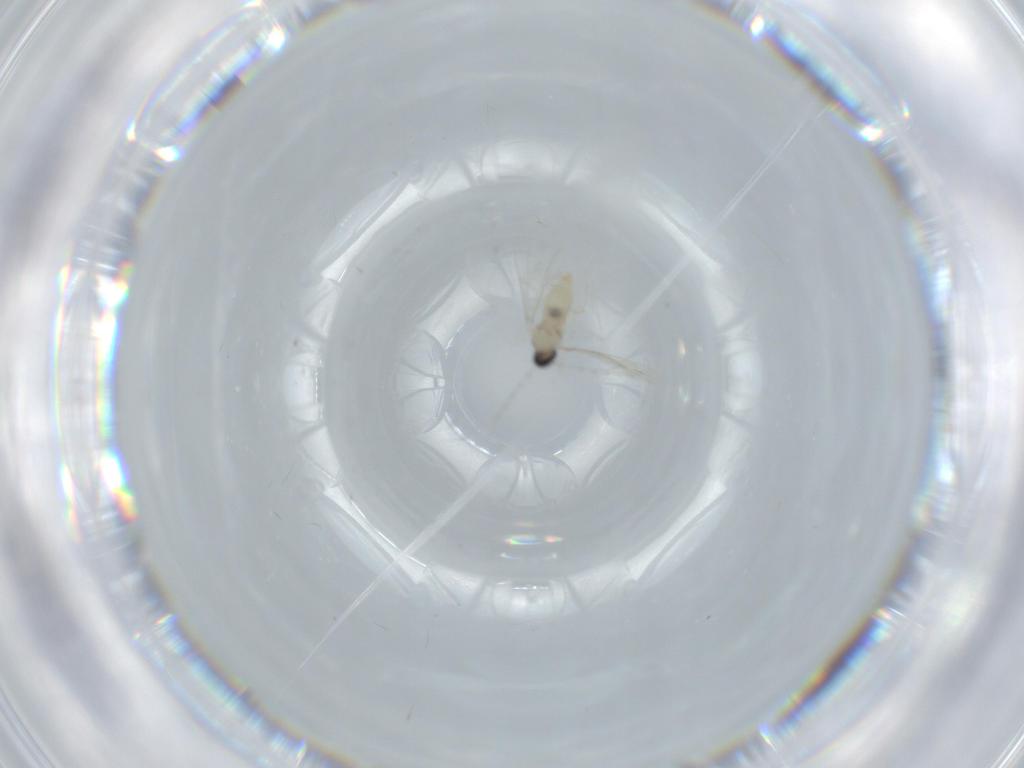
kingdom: Animalia
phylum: Arthropoda
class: Insecta
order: Diptera
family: Cecidomyiidae
